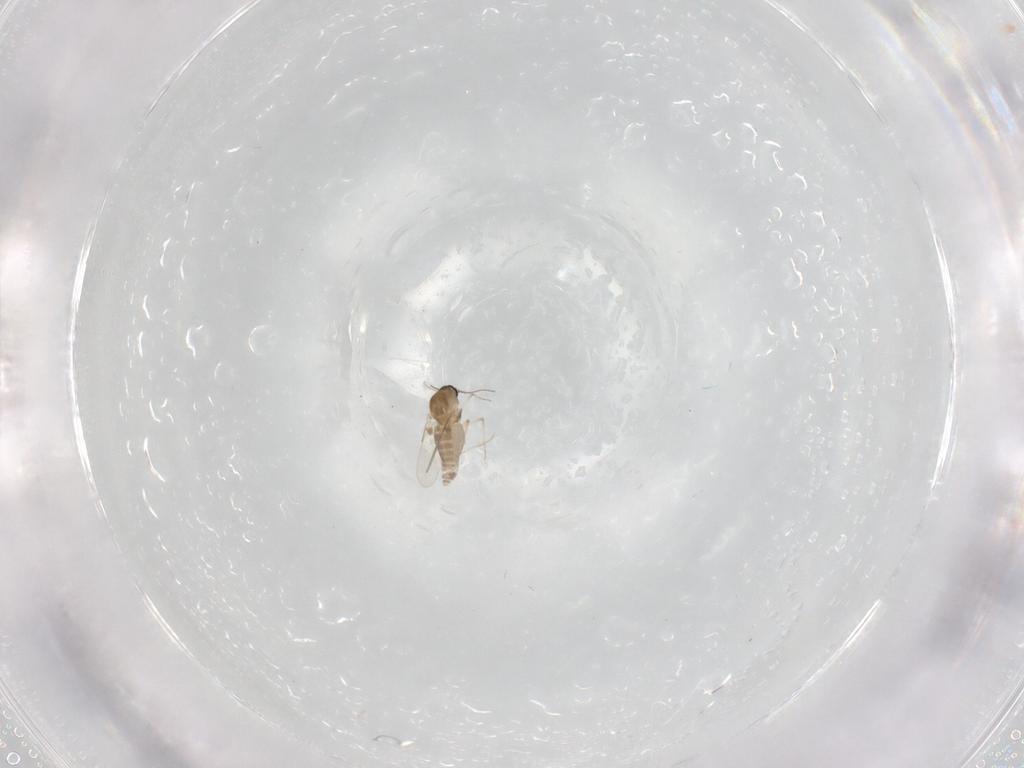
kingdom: Animalia
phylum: Arthropoda
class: Insecta
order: Diptera
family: Ceratopogonidae
